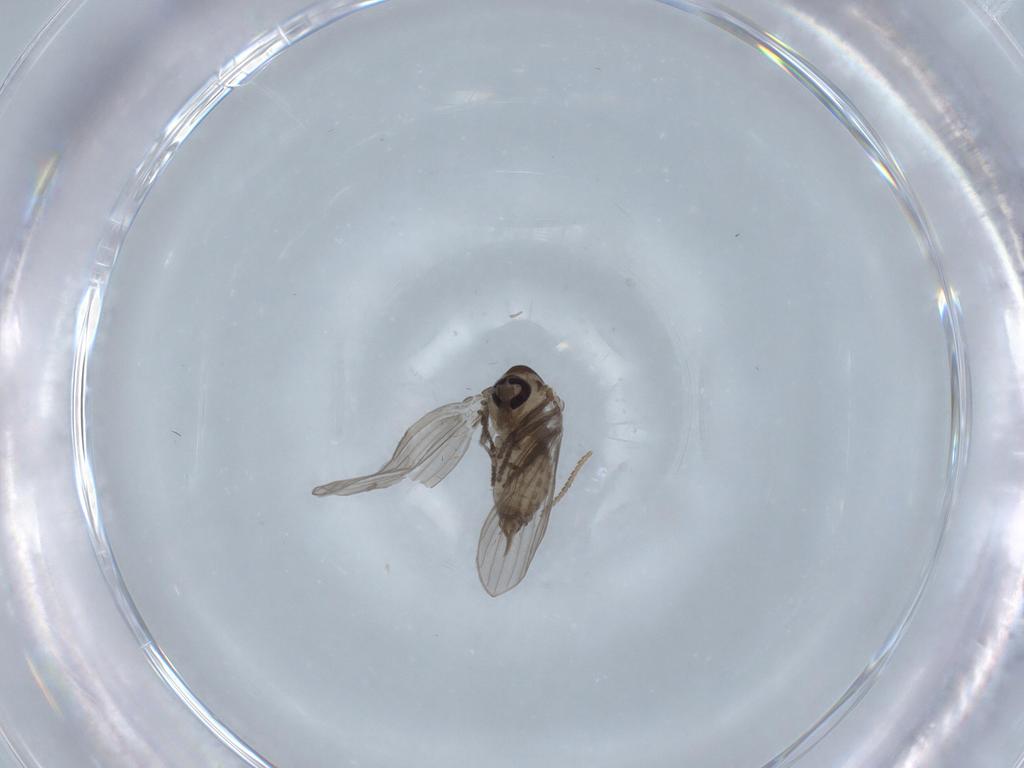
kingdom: Animalia
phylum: Arthropoda
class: Insecta
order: Diptera
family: Psychodidae
